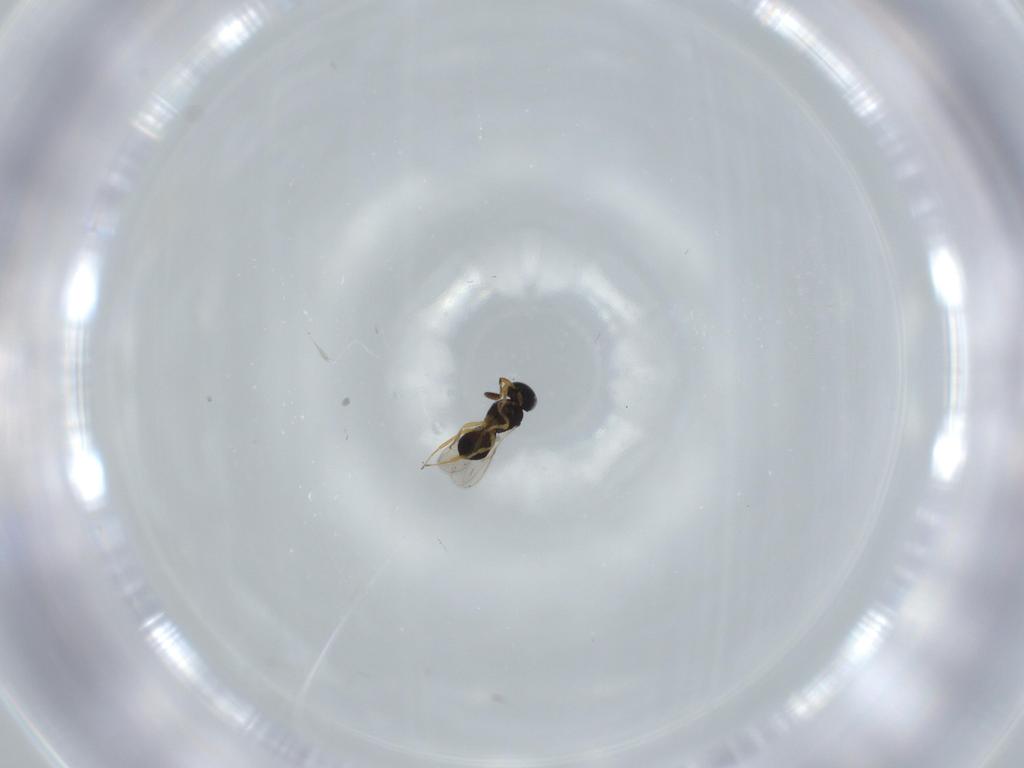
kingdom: Animalia
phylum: Arthropoda
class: Insecta
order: Hymenoptera
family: Scelionidae
